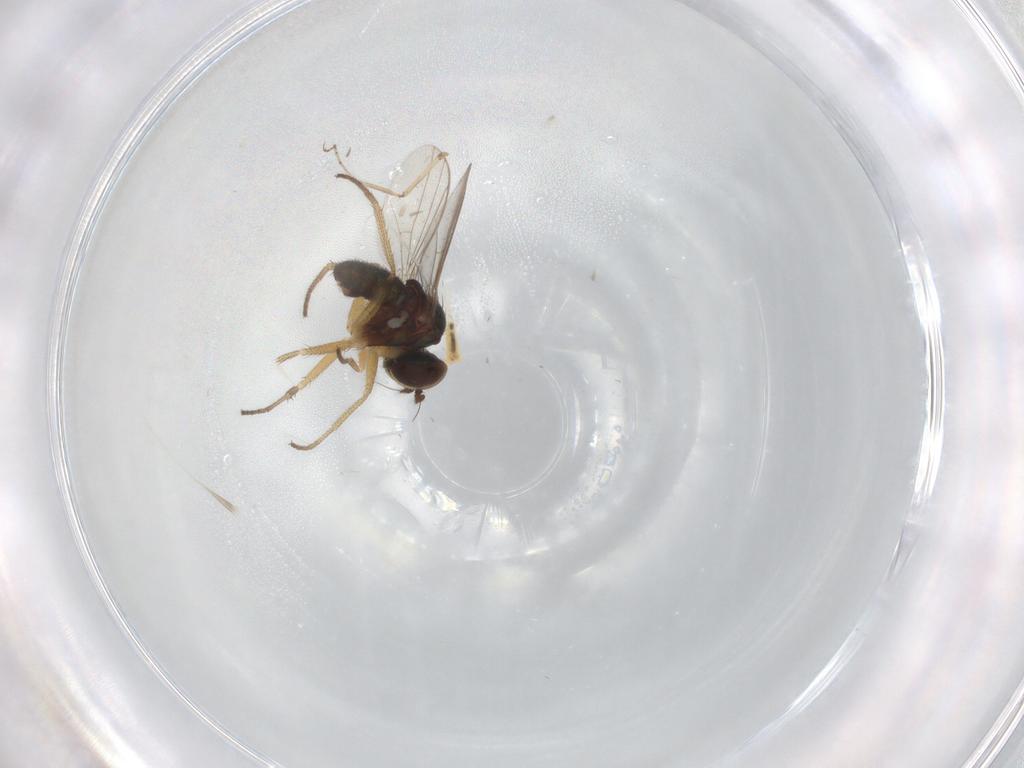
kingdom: Animalia
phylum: Arthropoda
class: Insecta
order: Diptera
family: Ceratopogonidae
